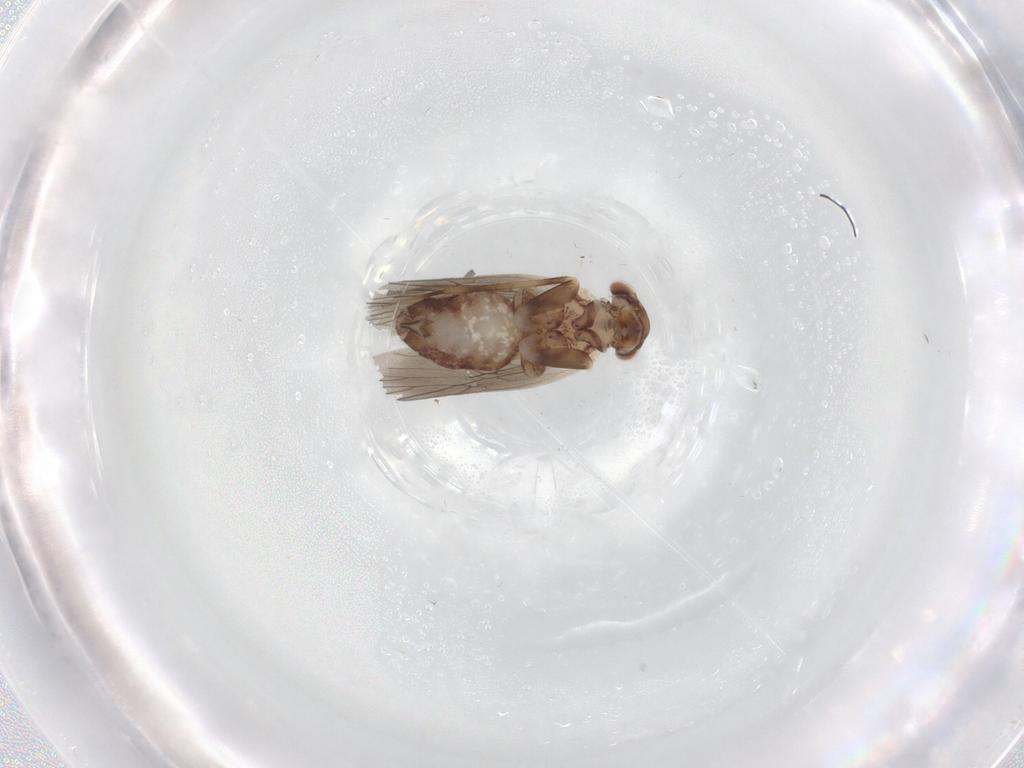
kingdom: Animalia
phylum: Arthropoda
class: Insecta
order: Psocodea
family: Lepidopsocidae
